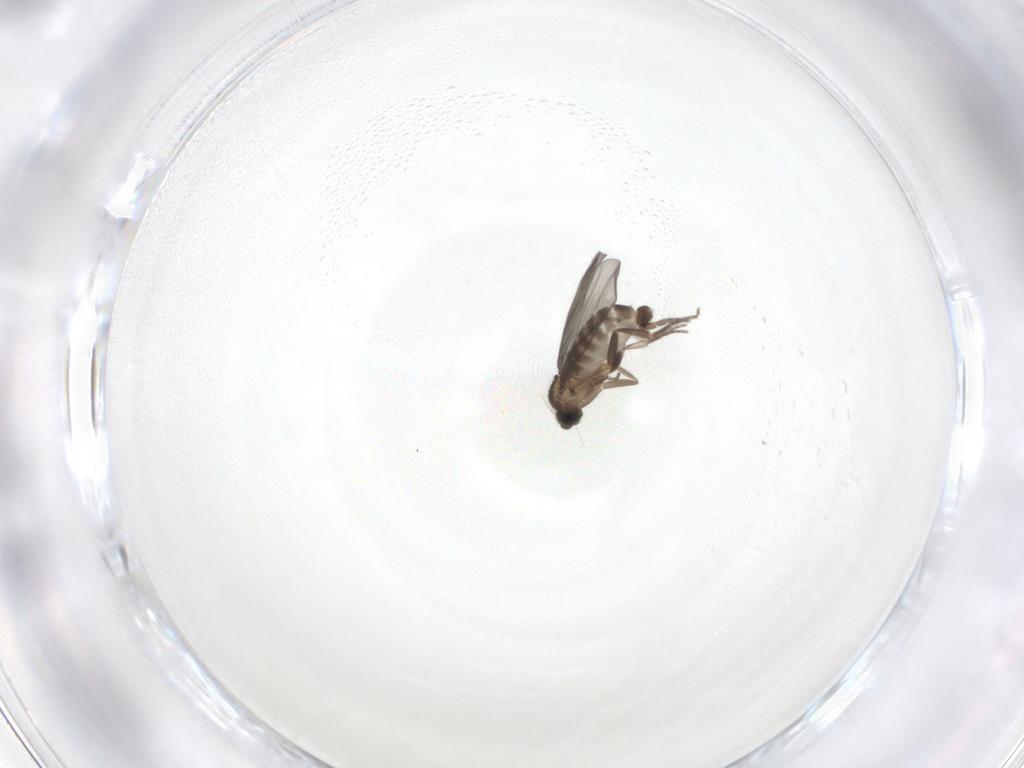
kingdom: Animalia
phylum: Arthropoda
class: Insecta
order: Diptera
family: Phoridae
